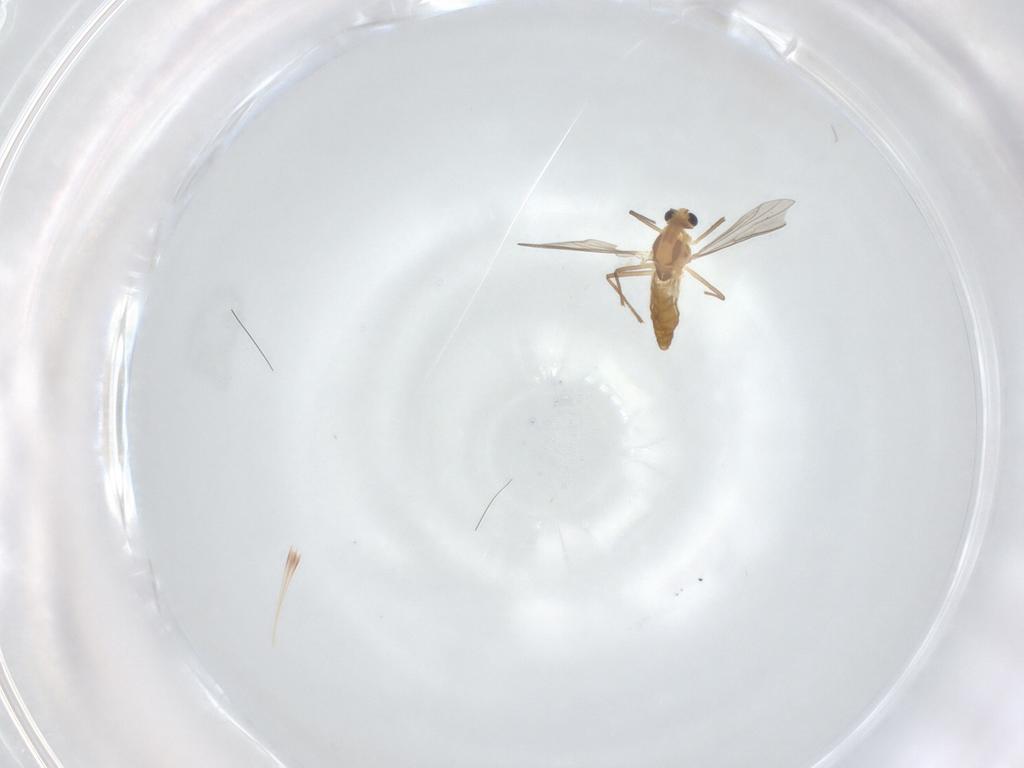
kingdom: Animalia
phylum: Arthropoda
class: Insecta
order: Diptera
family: Chironomidae
